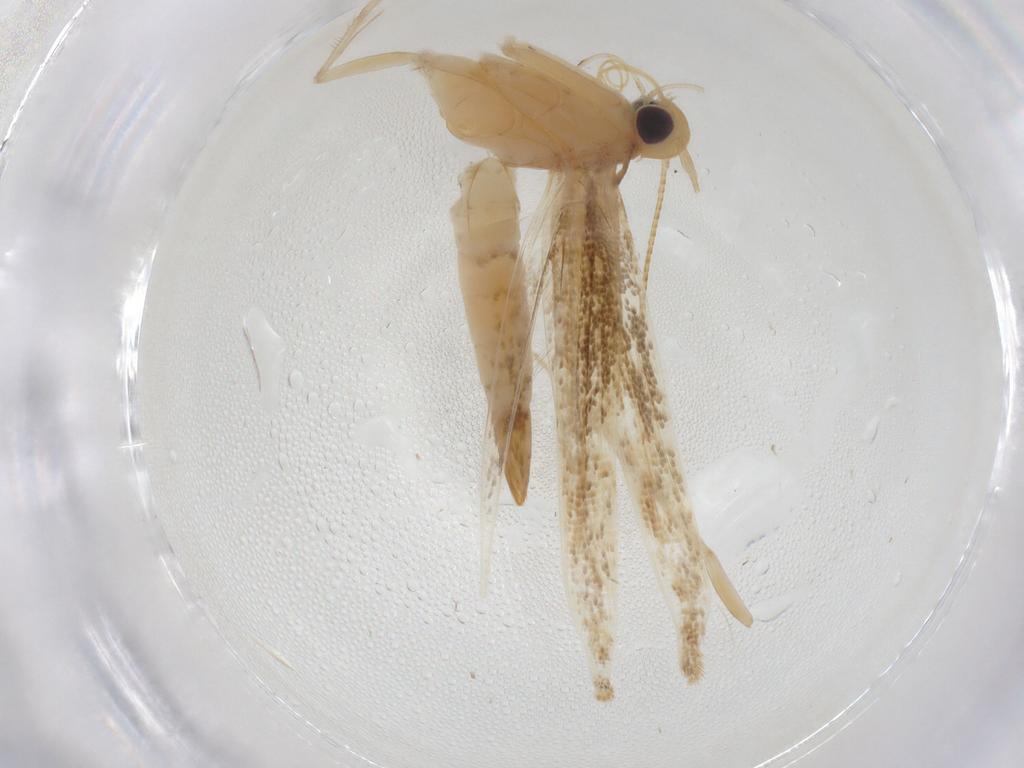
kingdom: Animalia
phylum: Arthropoda
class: Insecta
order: Lepidoptera
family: Gracillariidae
